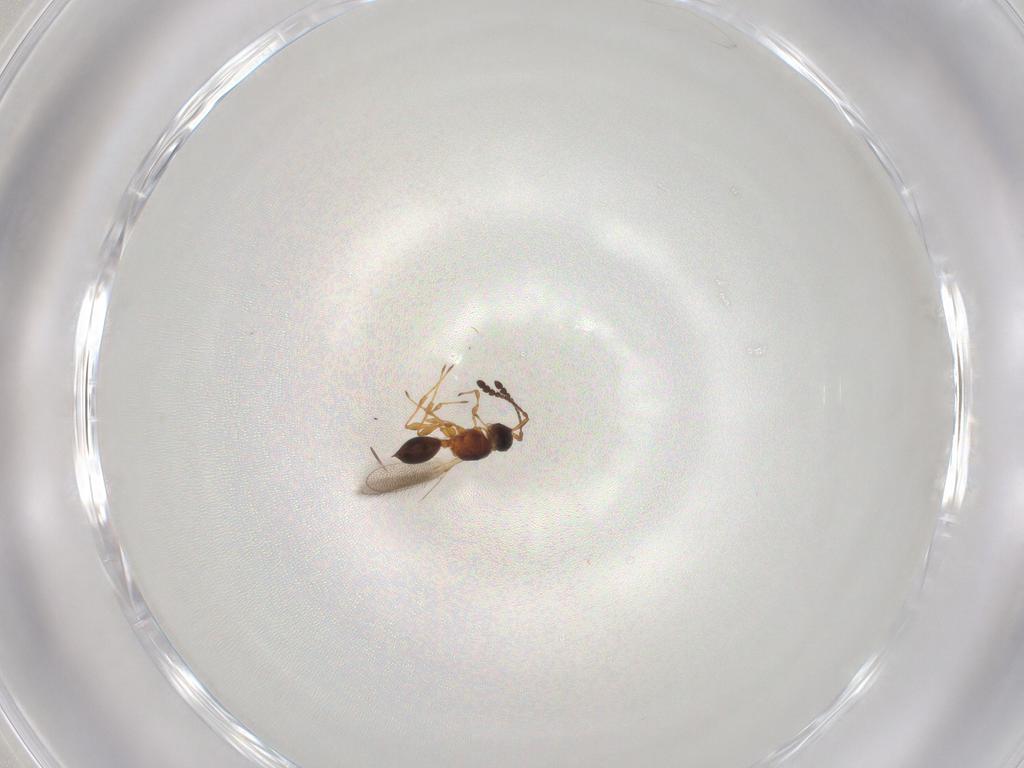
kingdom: Animalia
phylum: Arthropoda
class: Insecta
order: Hymenoptera
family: Diapriidae
